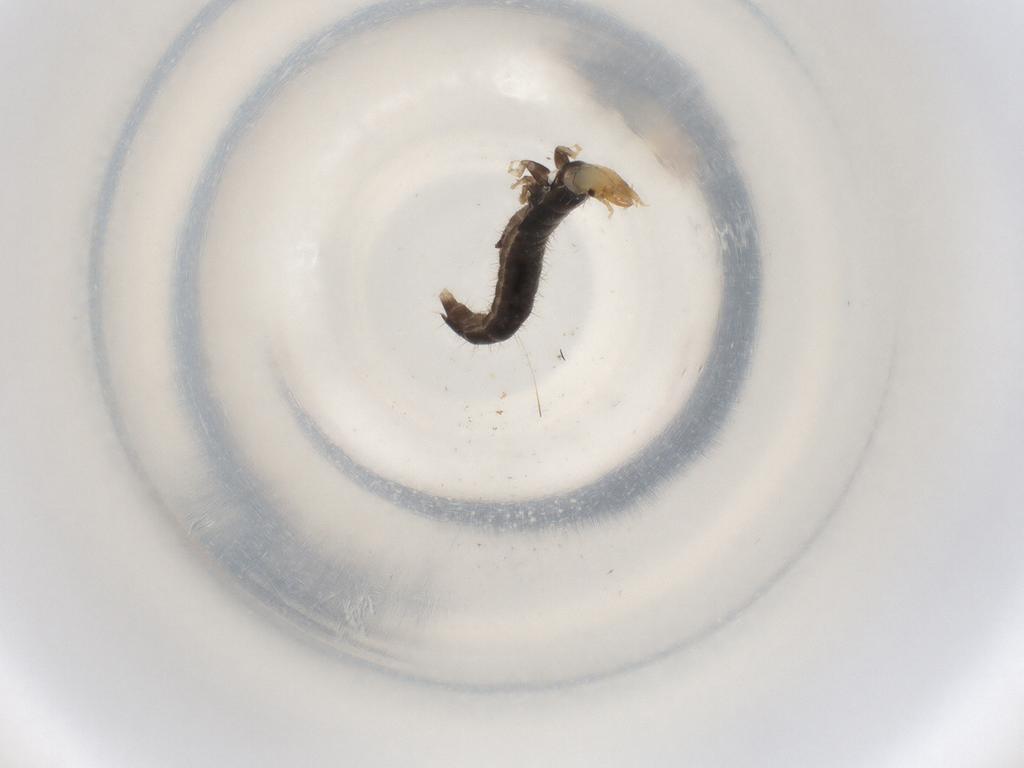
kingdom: Animalia
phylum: Arthropoda
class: Insecta
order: Coleoptera
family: Carabidae
